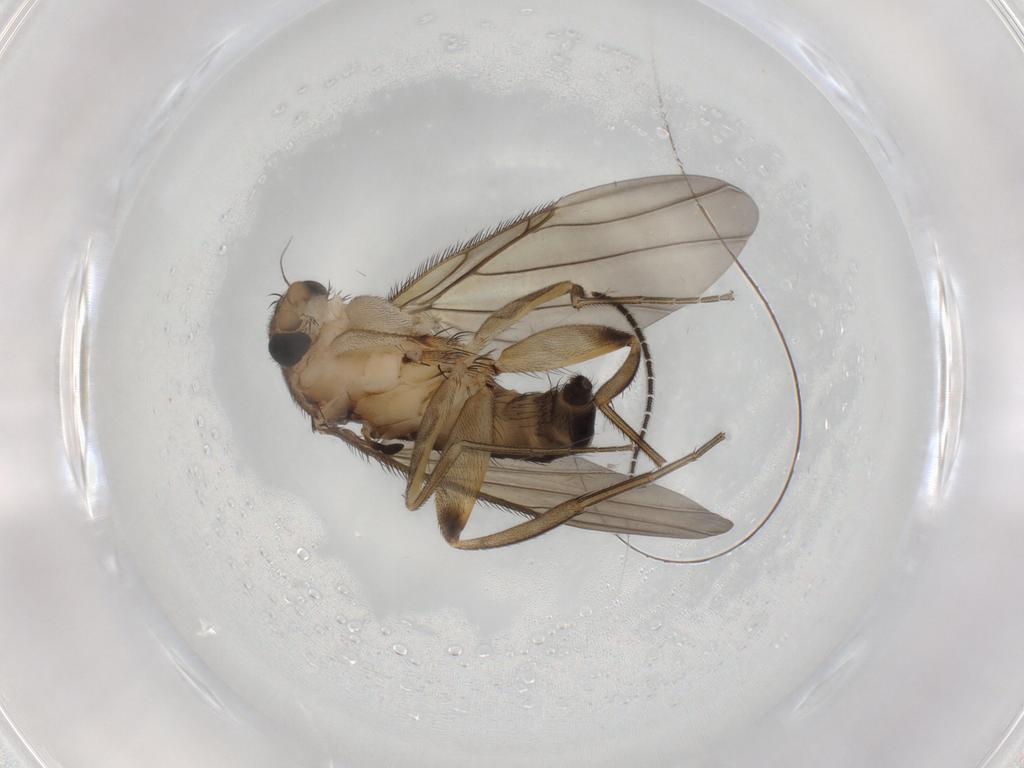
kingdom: Animalia
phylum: Arthropoda
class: Insecta
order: Diptera
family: Phoridae
